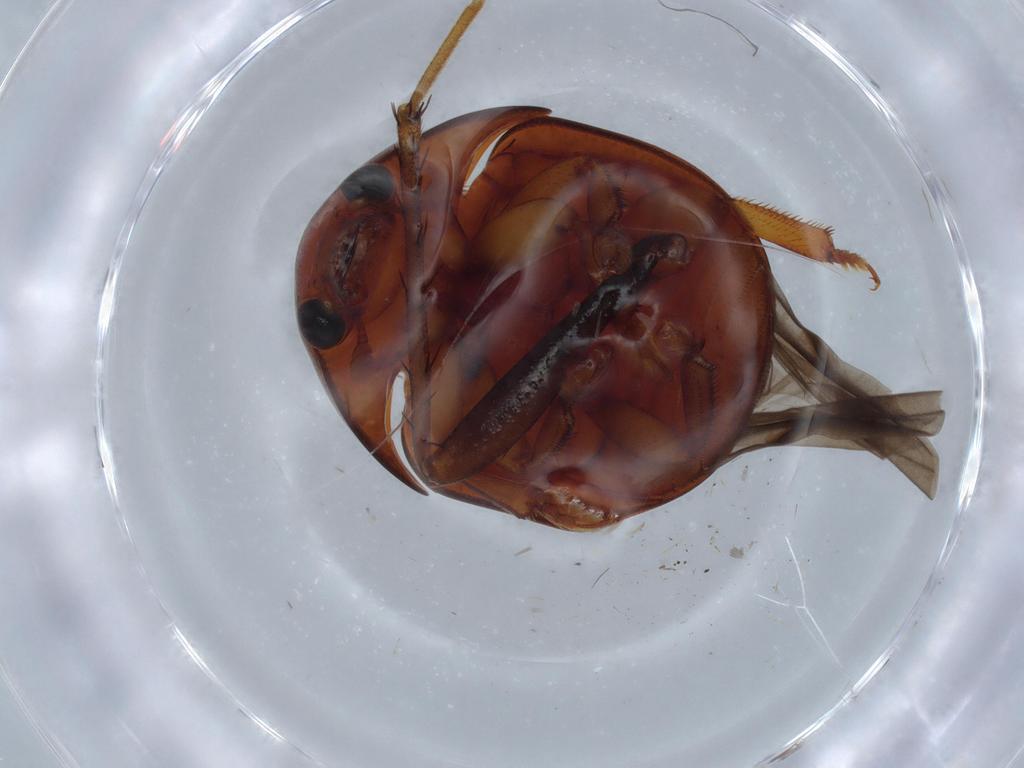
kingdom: Animalia
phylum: Arthropoda
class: Insecta
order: Coleoptera
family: Nitidulidae
